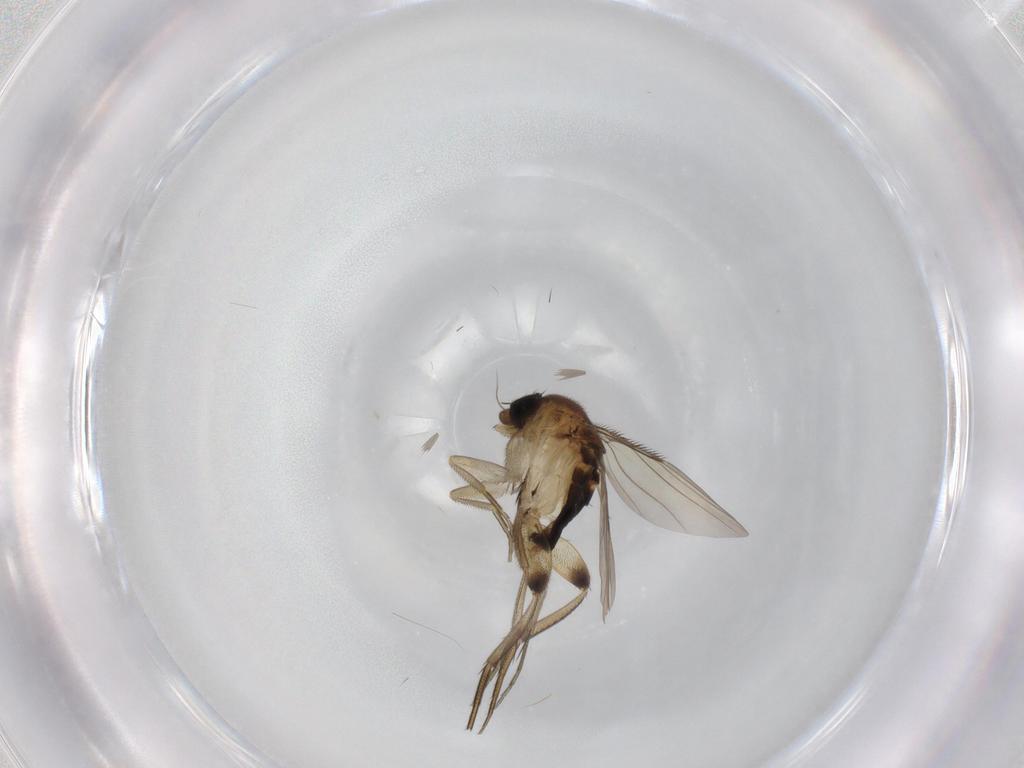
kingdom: Animalia
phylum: Arthropoda
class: Insecta
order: Diptera
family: Phoridae
